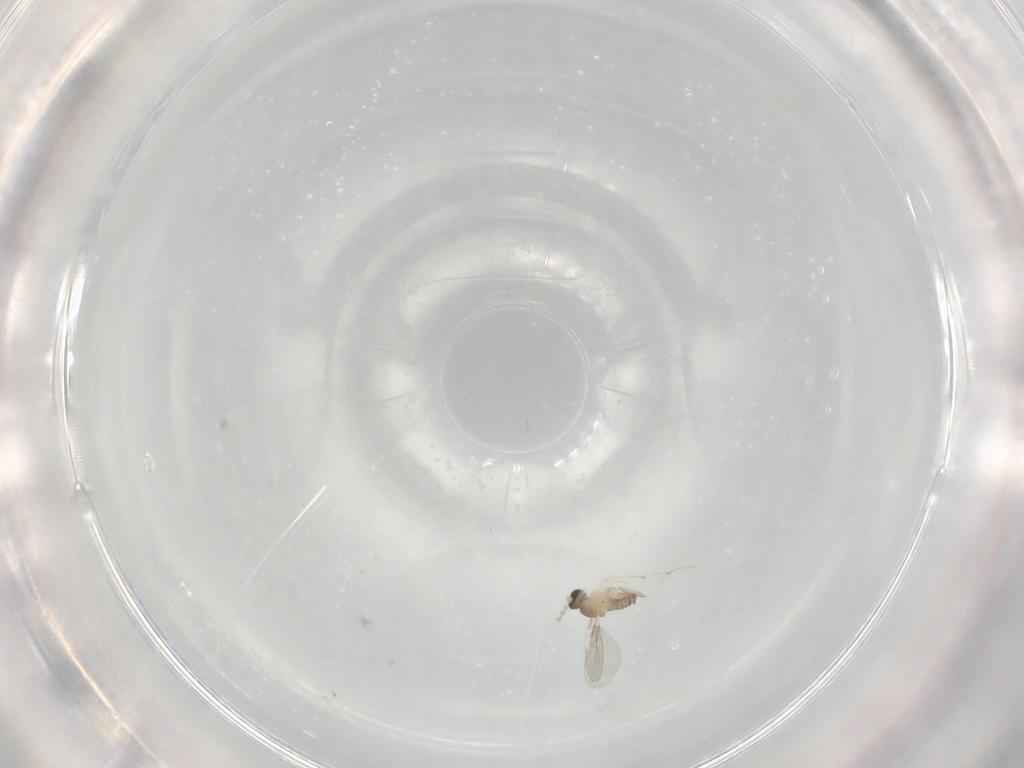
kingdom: Animalia
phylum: Arthropoda
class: Insecta
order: Diptera
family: Cecidomyiidae
